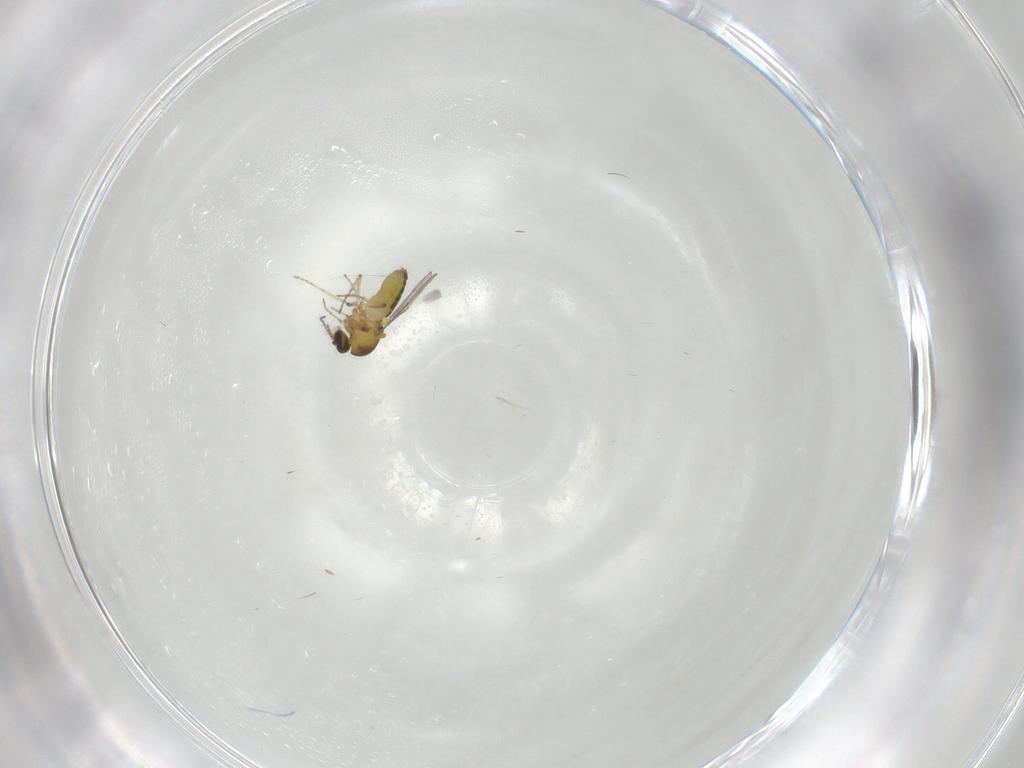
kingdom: Animalia
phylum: Arthropoda
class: Insecta
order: Diptera
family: Ceratopogonidae
